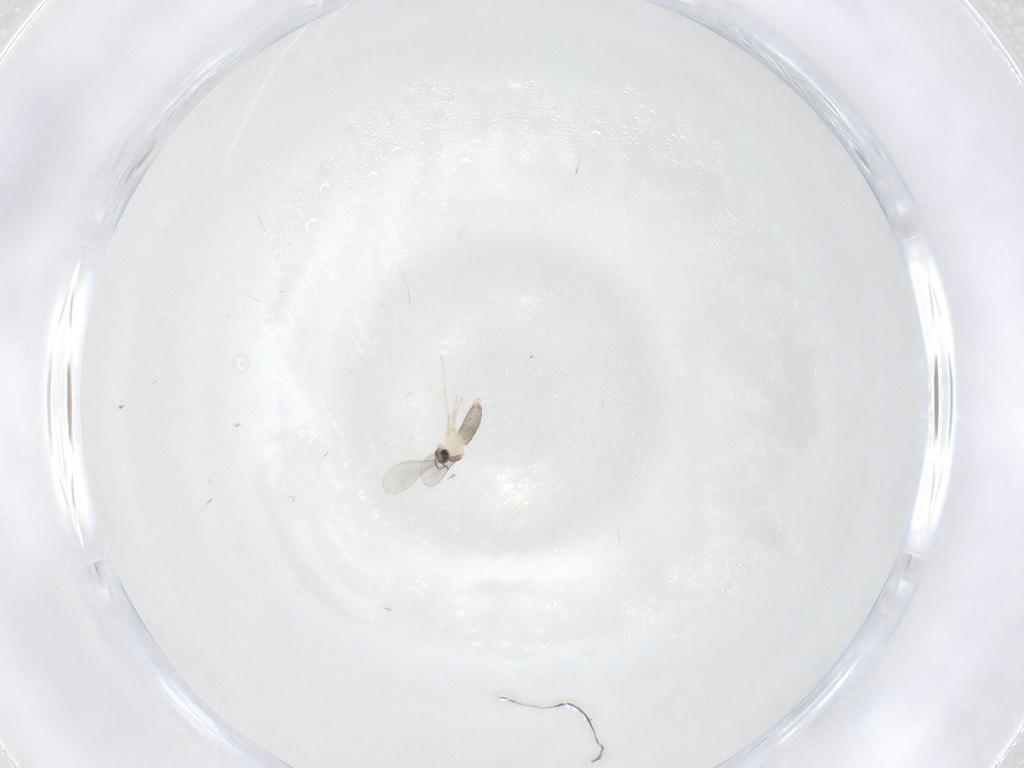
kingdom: Animalia
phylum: Arthropoda
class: Insecta
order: Diptera
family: Cecidomyiidae
